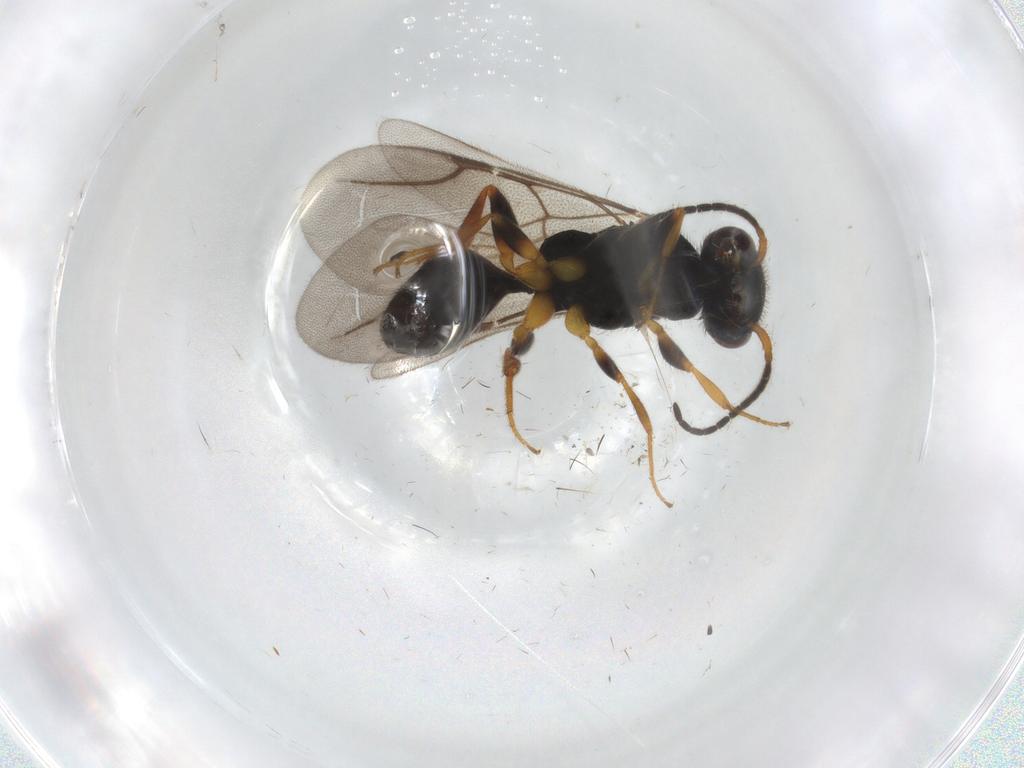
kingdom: Animalia
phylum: Arthropoda
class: Insecta
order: Hymenoptera
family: Bethylidae
